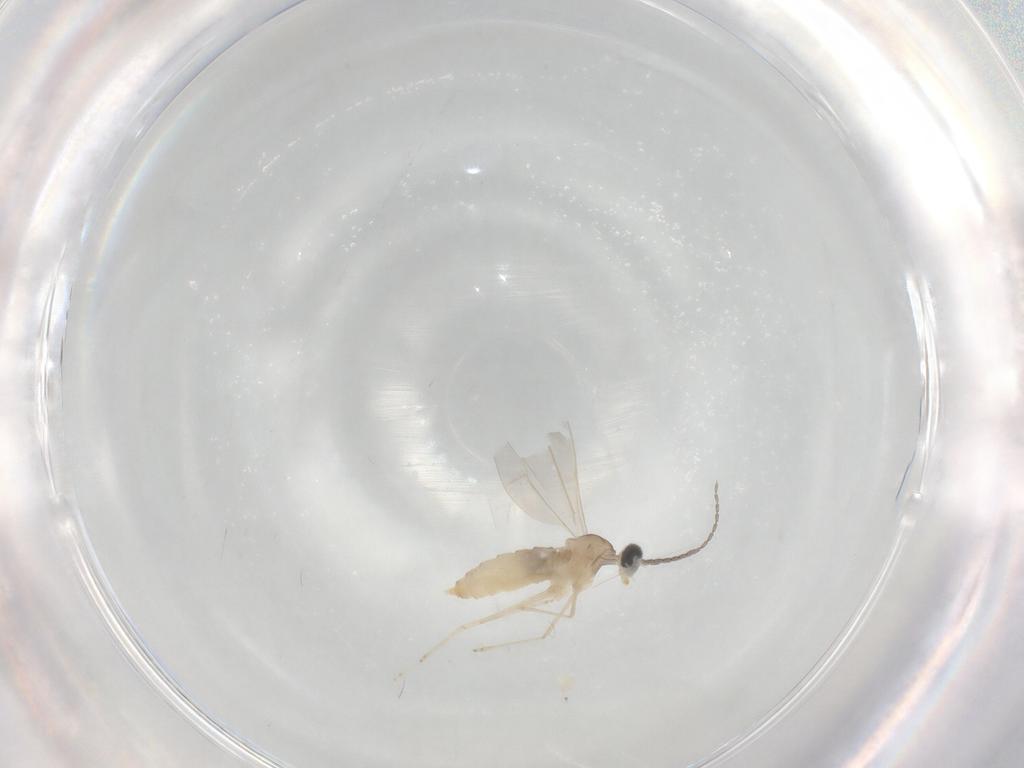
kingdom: Animalia
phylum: Arthropoda
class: Insecta
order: Diptera
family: Cecidomyiidae
